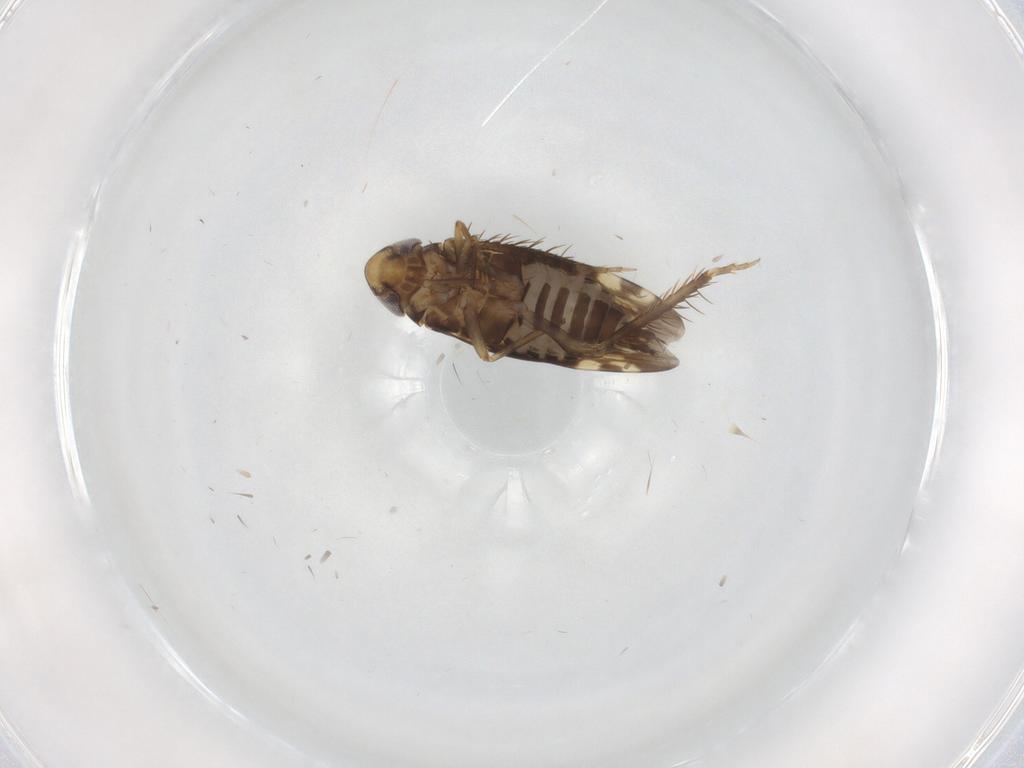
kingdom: Animalia
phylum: Arthropoda
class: Insecta
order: Hemiptera
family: Cicadellidae
